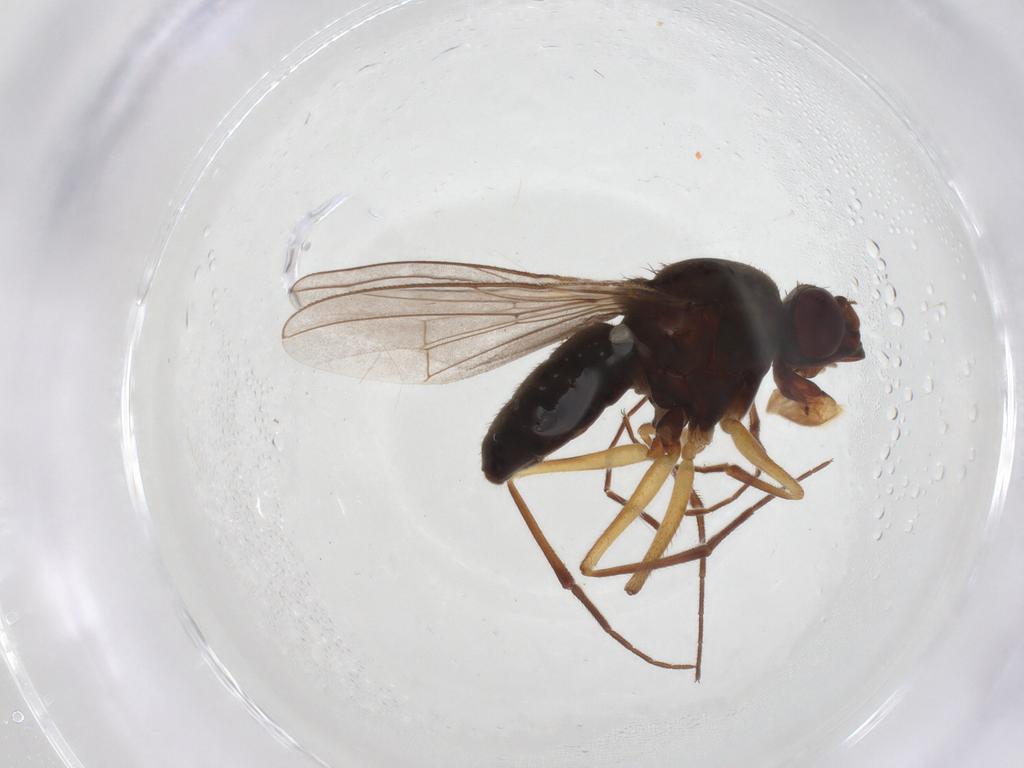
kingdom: Animalia
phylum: Arthropoda
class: Insecta
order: Diptera
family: Ephydridae
